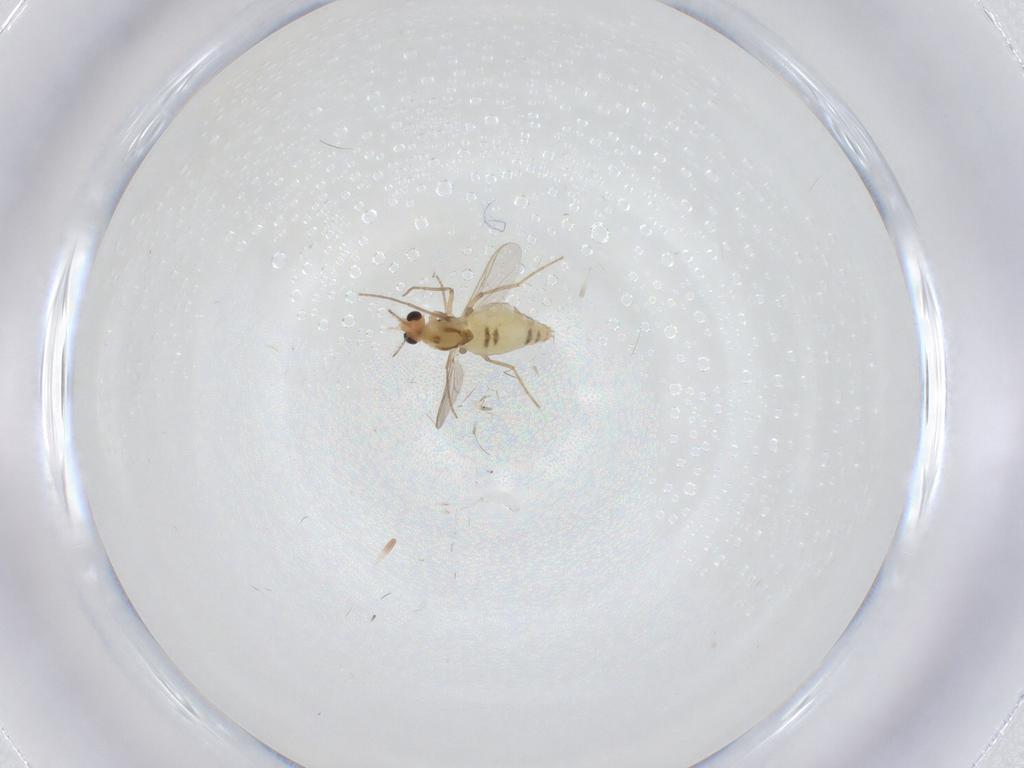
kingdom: Animalia
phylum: Arthropoda
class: Insecta
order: Diptera
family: Chironomidae
